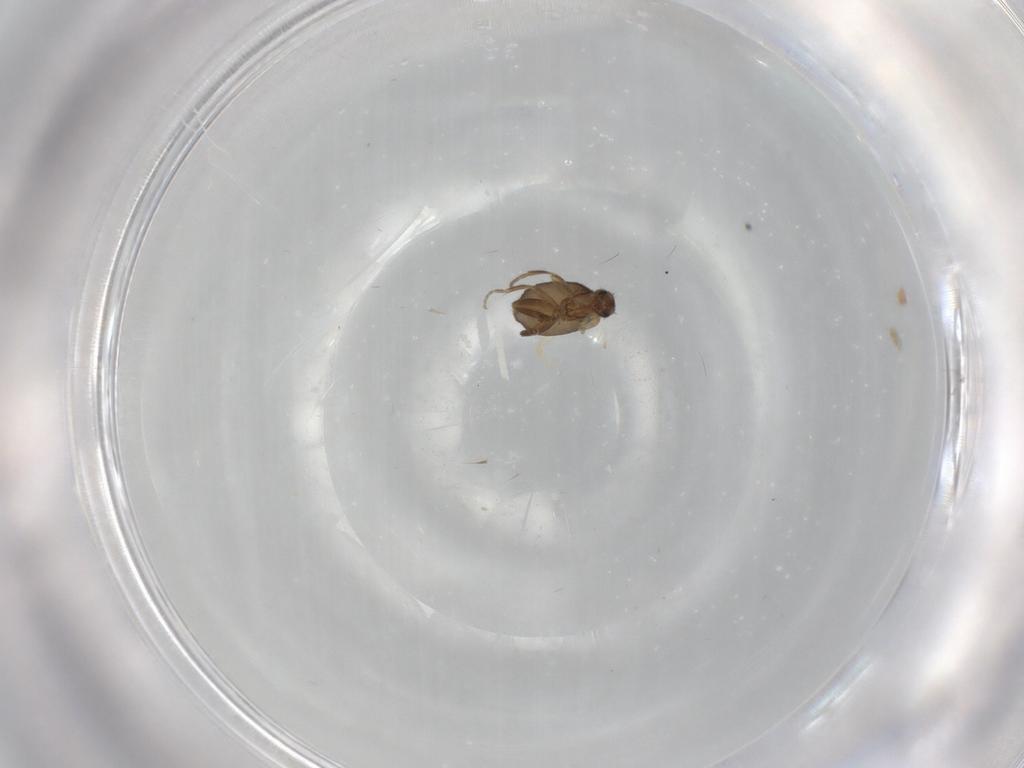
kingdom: Animalia
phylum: Arthropoda
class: Insecta
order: Diptera
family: Phoridae
